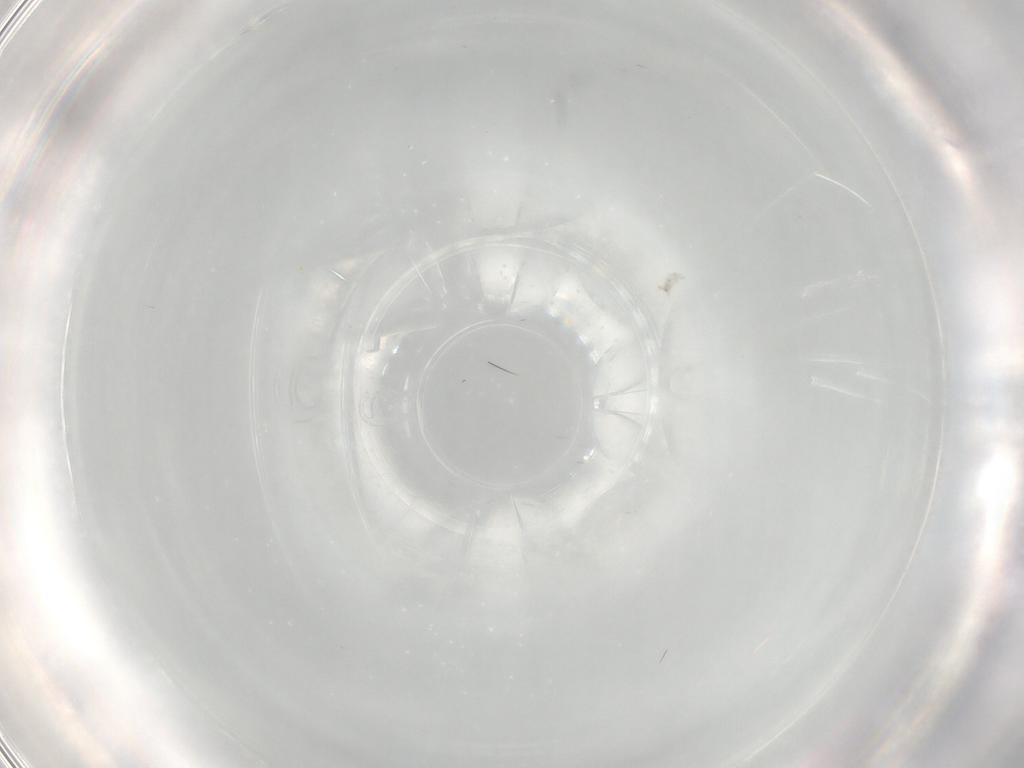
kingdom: Animalia
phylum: Arthropoda
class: Insecta
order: Diptera
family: Cecidomyiidae
